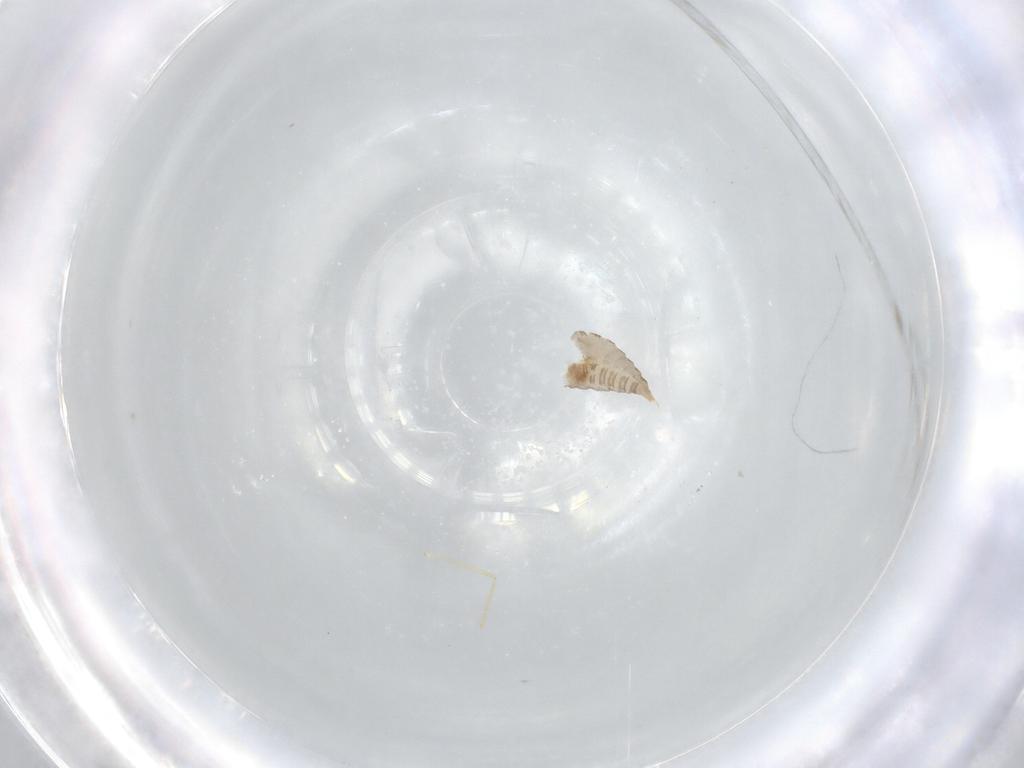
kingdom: Animalia
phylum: Arthropoda
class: Insecta
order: Diptera
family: Cecidomyiidae
